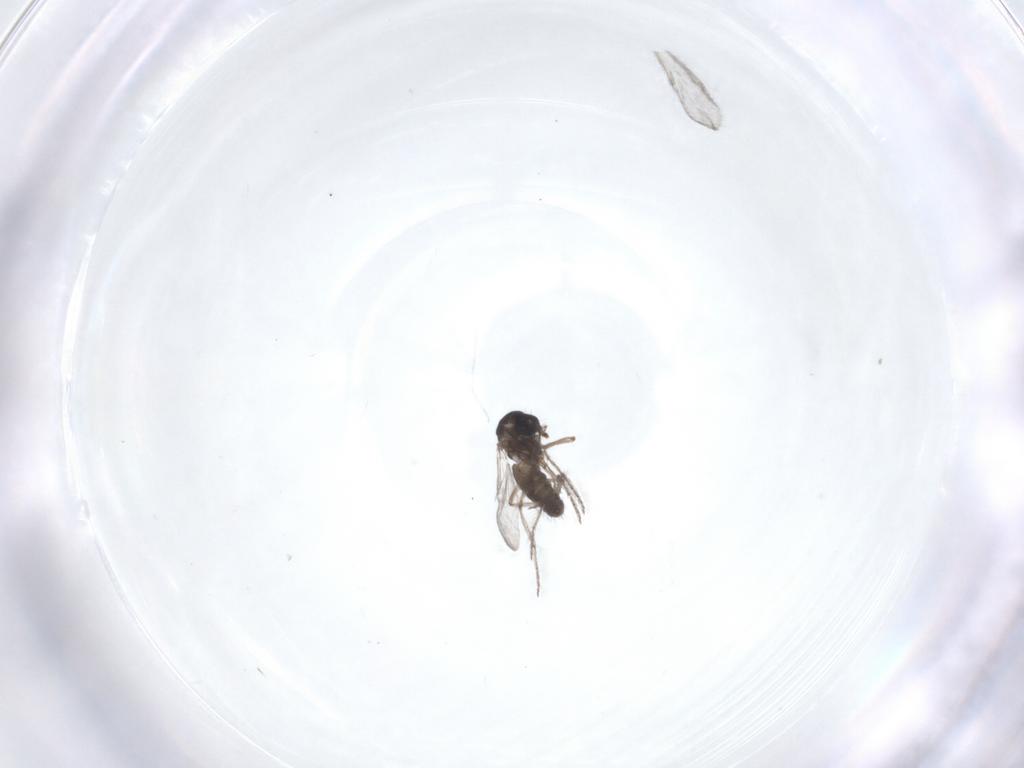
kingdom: Animalia
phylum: Arthropoda
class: Insecta
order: Diptera
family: Ceratopogonidae
